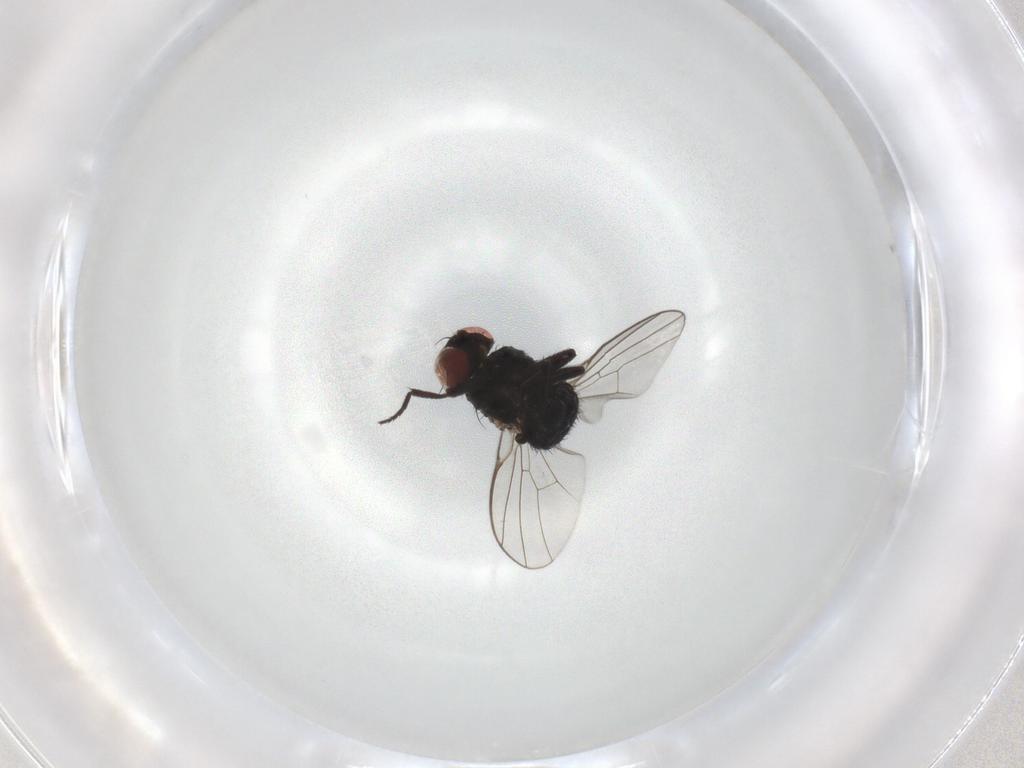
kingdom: Animalia
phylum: Arthropoda
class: Insecta
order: Diptera
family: Agromyzidae
